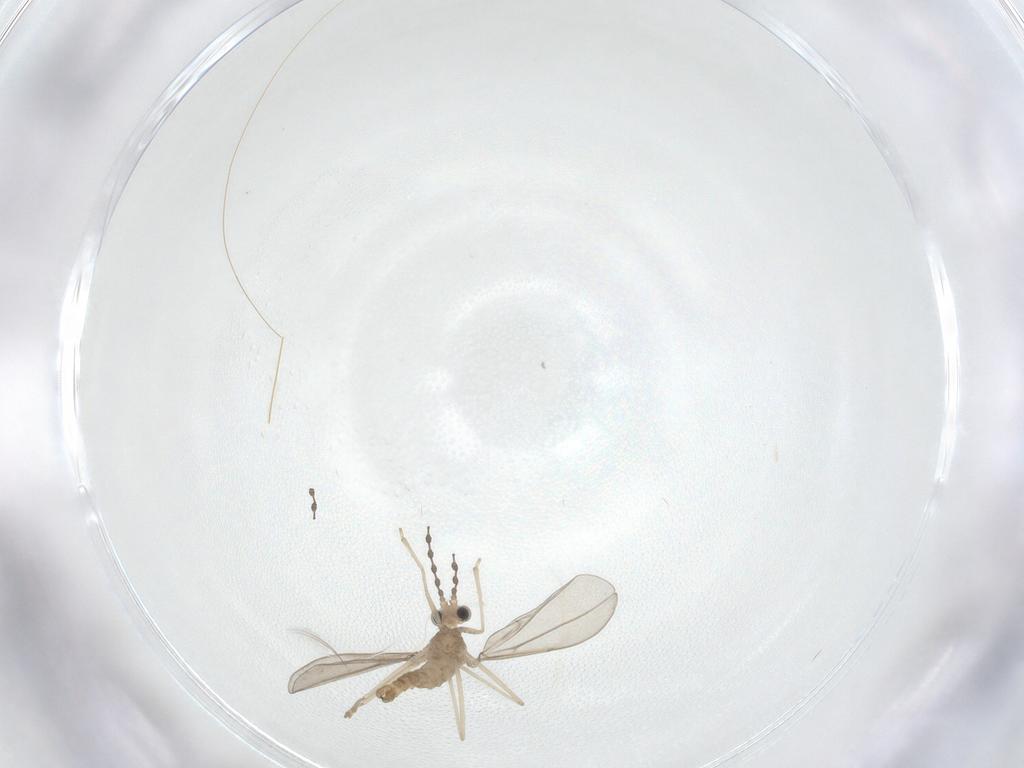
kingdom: Animalia
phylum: Arthropoda
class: Insecta
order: Diptera
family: Cecidomyiidae
